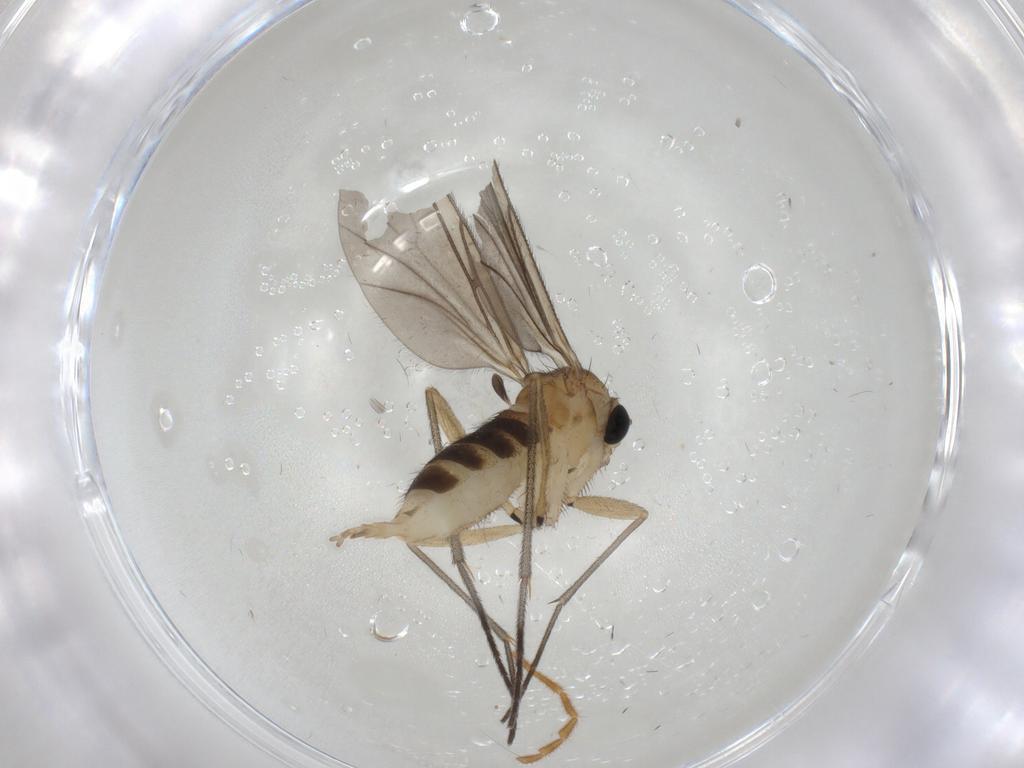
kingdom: Animalia
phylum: Arthropoda
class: Insecta
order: Diptera
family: Sciaridae
